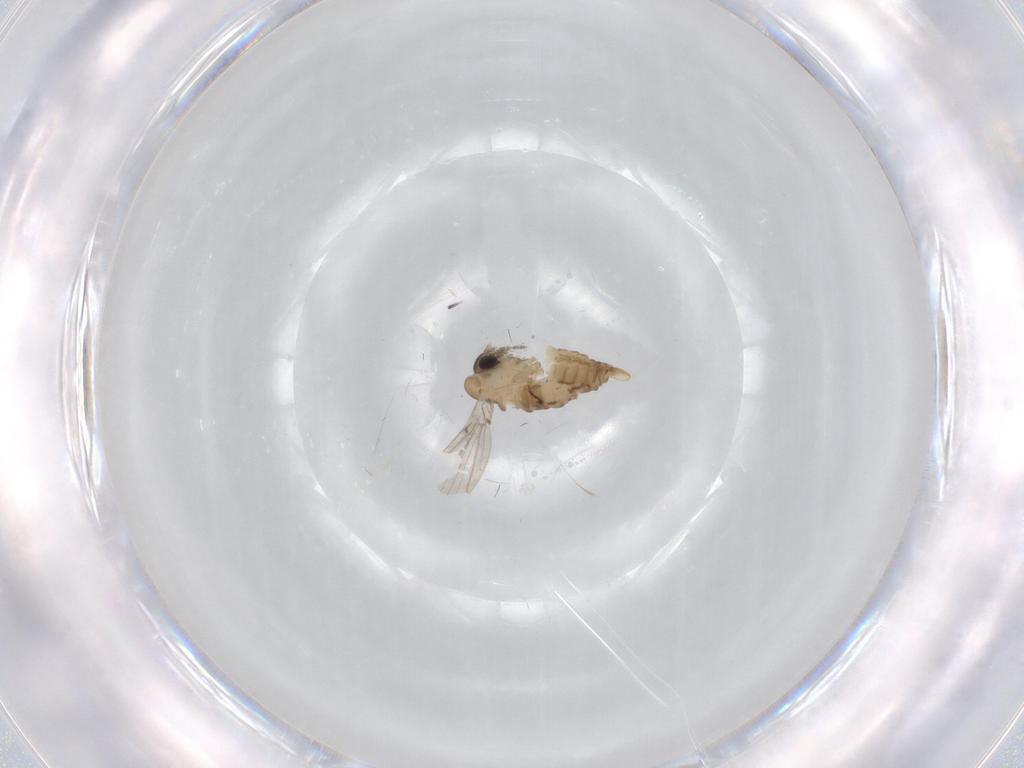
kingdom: Animalia
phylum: Arthropoda
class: Insecta
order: Diptera
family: Psychodidae
